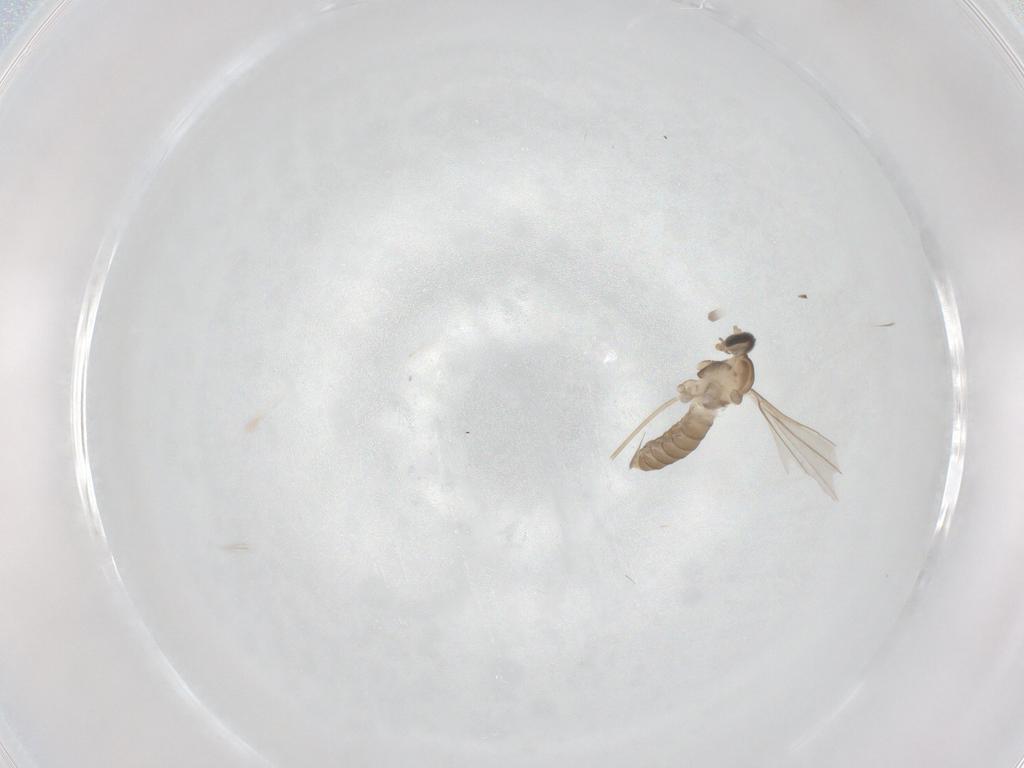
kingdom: Animalia
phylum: Arthropoda
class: Insecta
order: Diptera
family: Cecidomyiidae
